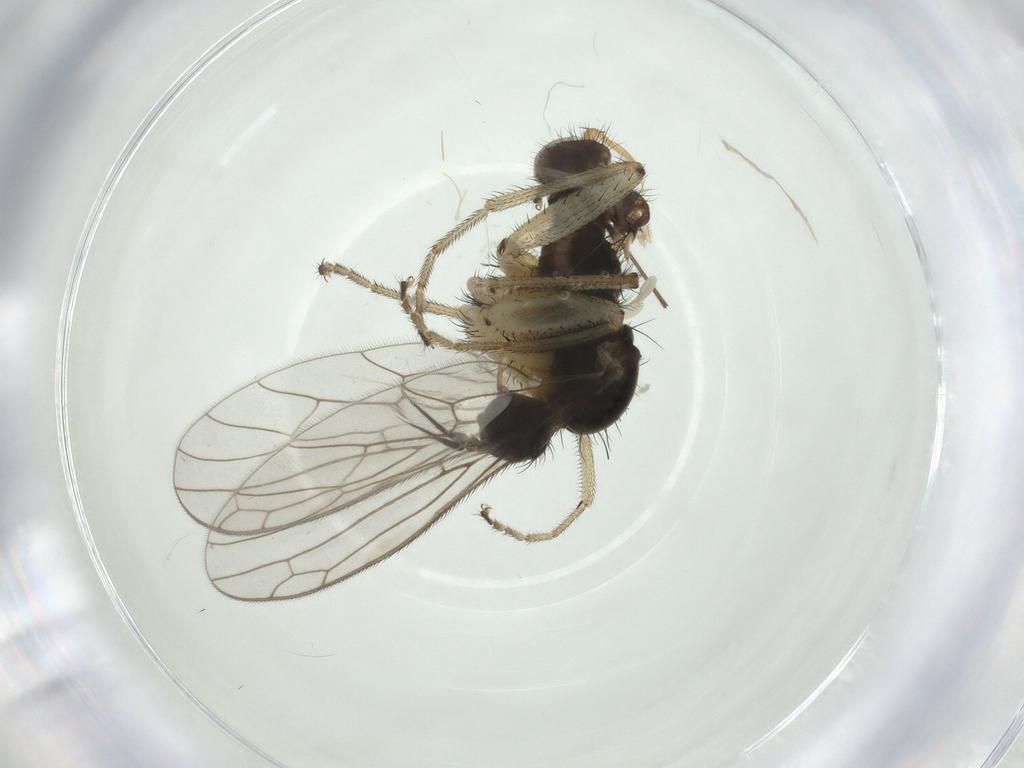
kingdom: Animalia
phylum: Arthropoda
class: Insecta
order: Diptera
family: Chironomidae
